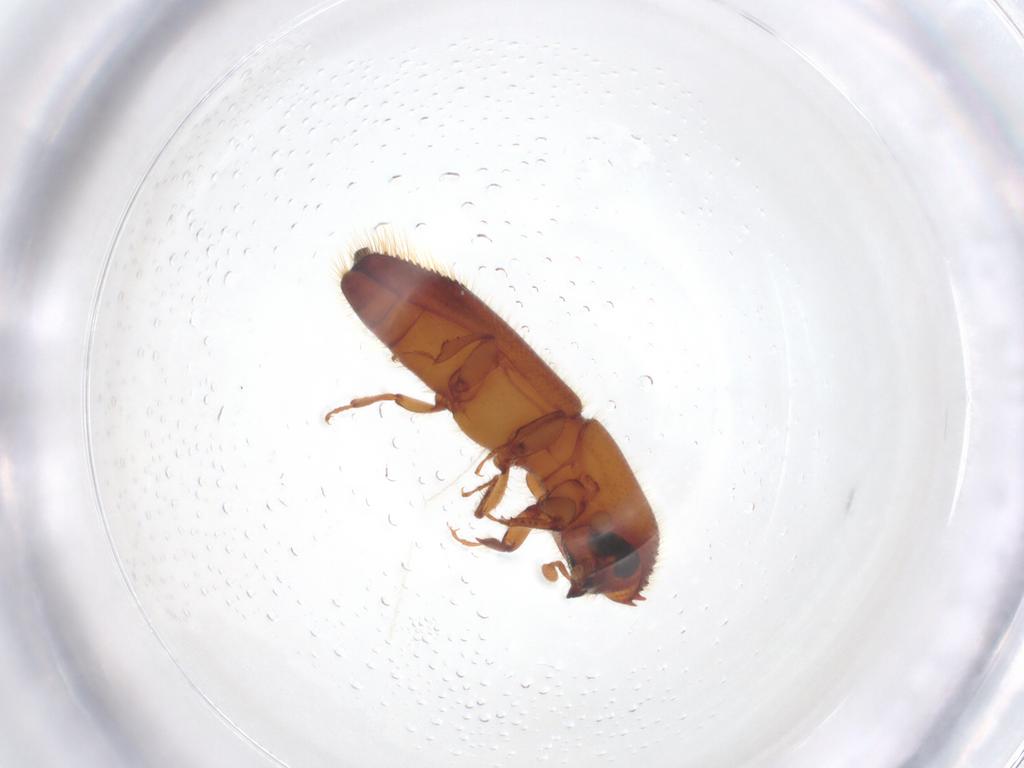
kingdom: Animalia
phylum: Arthropoda
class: Insecta
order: Coleoptera
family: Curculionidae
